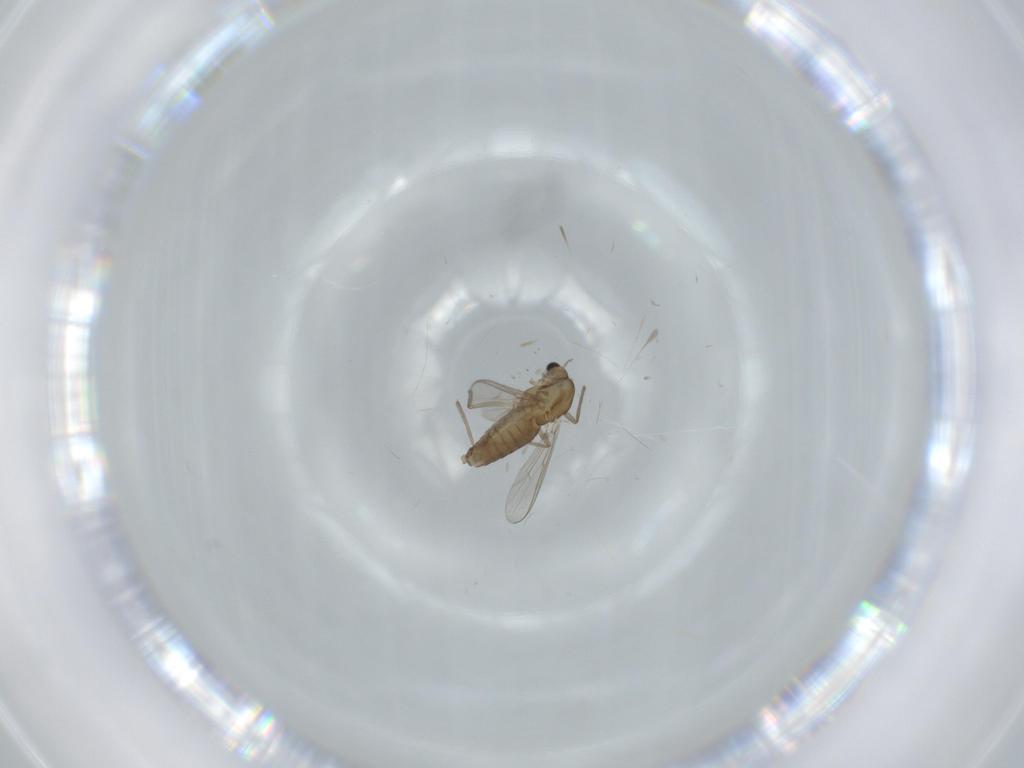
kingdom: Animalia
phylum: Arthropoda
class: Insecta
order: Diptera
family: Chironomidae
